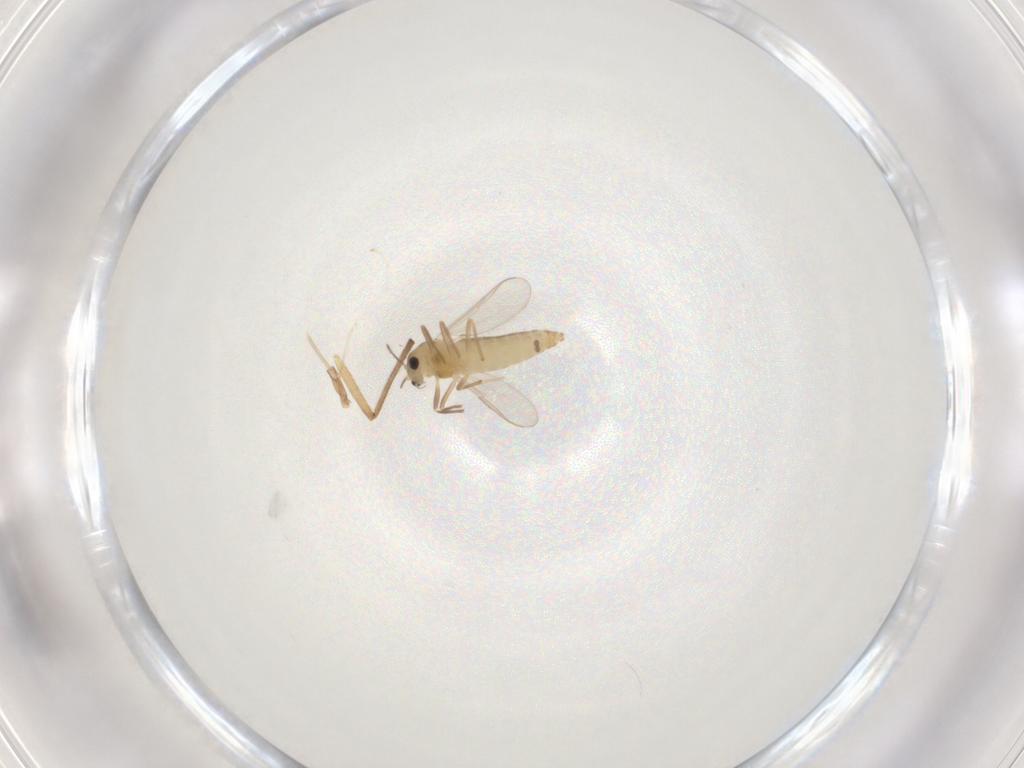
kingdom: Animalia
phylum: Arthropoda
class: Insecta
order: Diptera
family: Chironomidae
